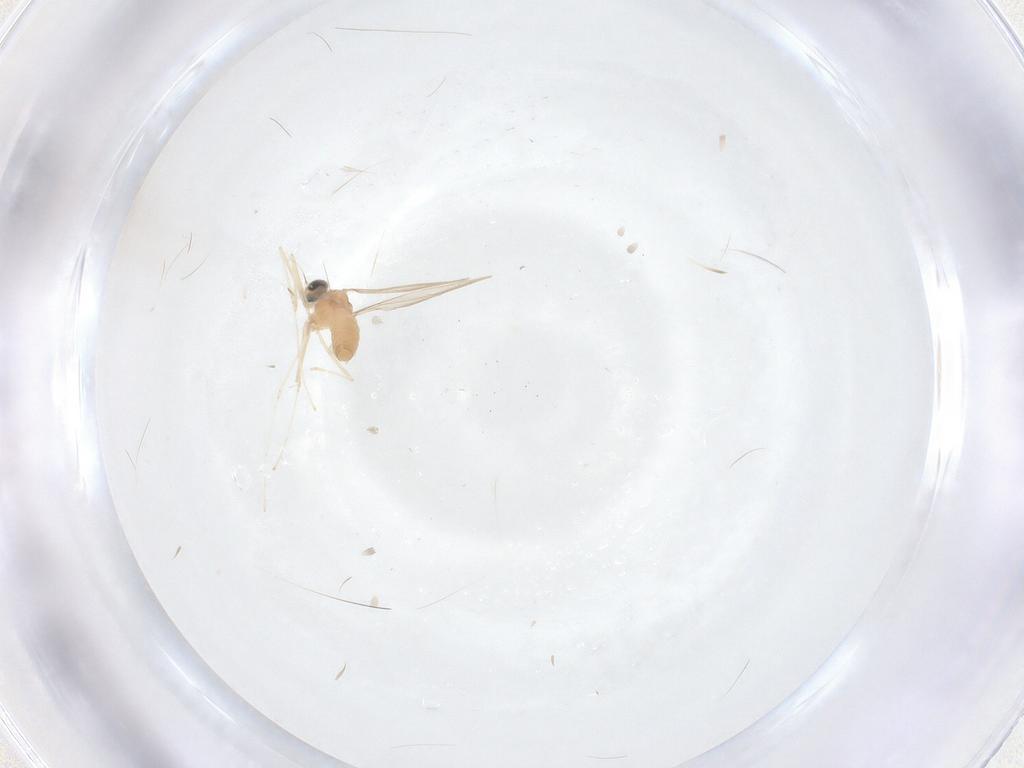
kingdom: Animalia
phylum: Arthropoda
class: Insecta
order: Diptera
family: Cecidomyiidae
